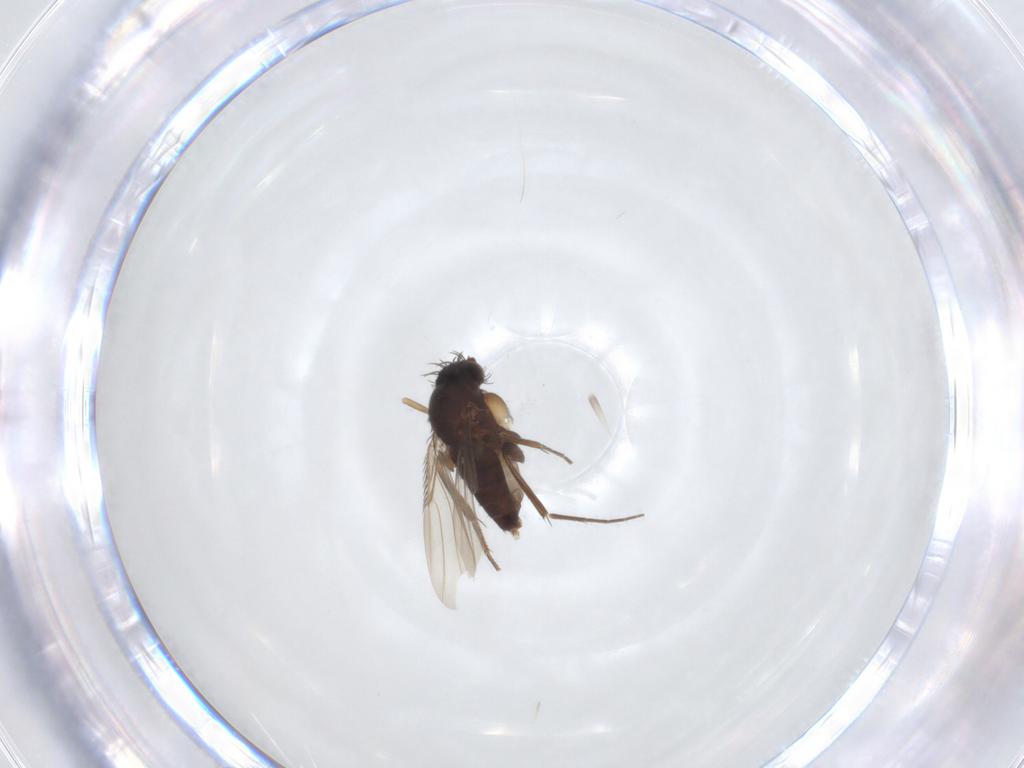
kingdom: Animalia
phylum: Arthropoda
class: Insecta
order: Diptera
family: Phoridae
